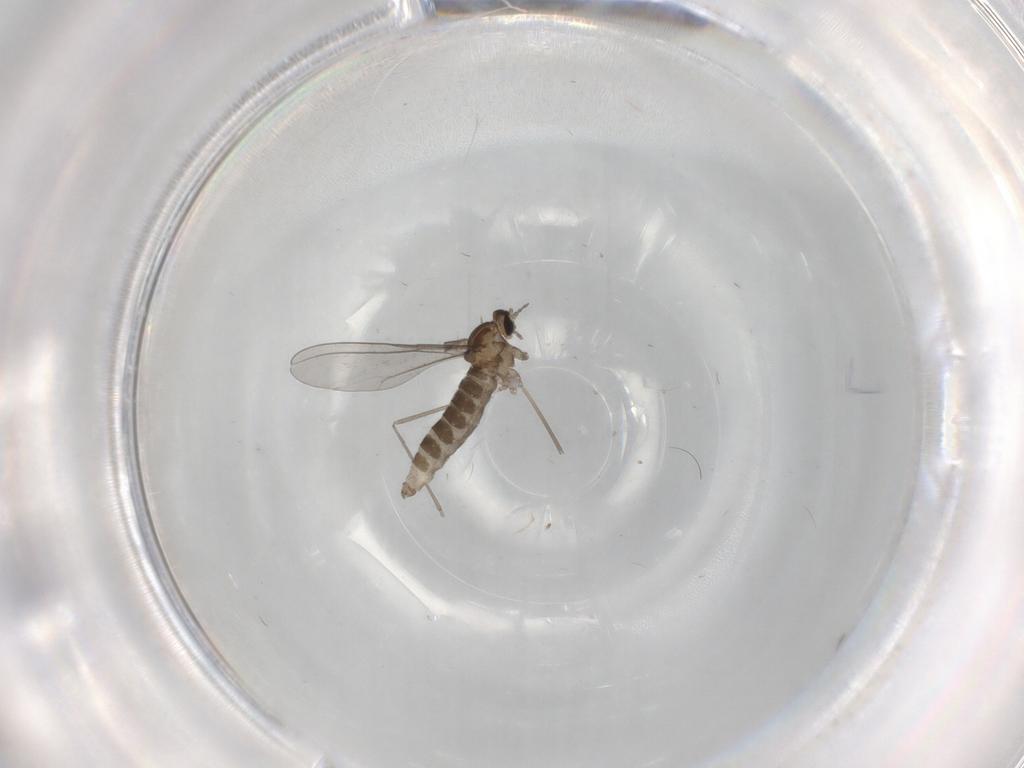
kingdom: Animalia
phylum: Arthropoda
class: Insecta
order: Diptera
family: Cecidomyiidae
